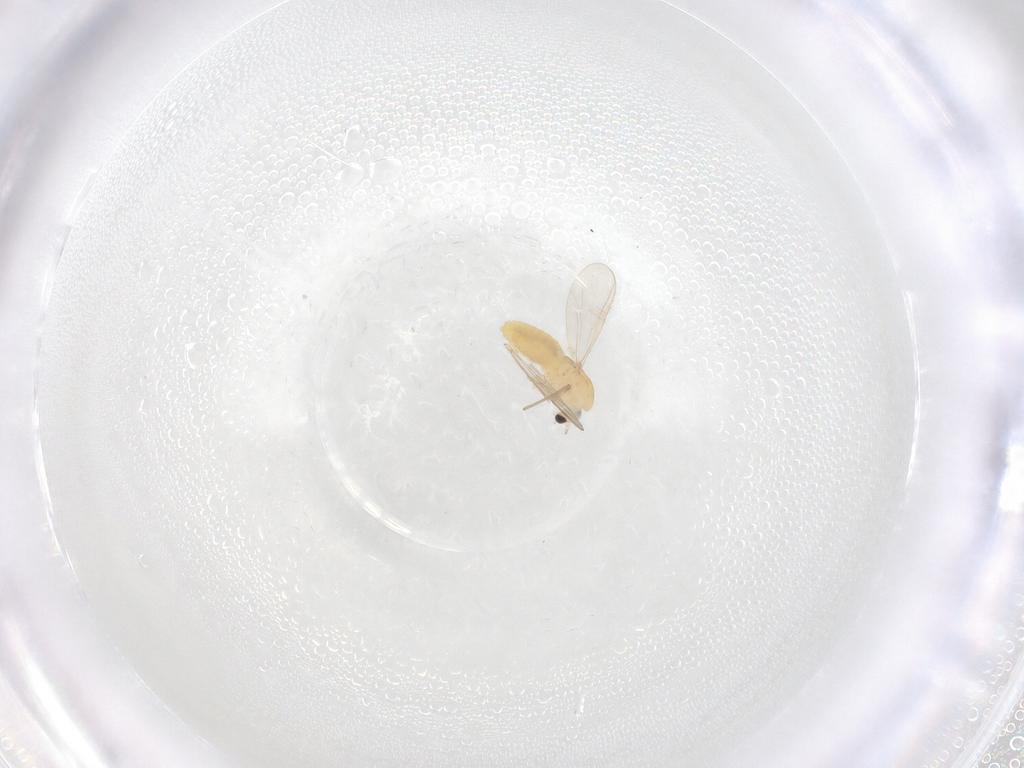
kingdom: Animalia
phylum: Arthropoda
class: Insecta
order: Diptera
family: Chironomidae
